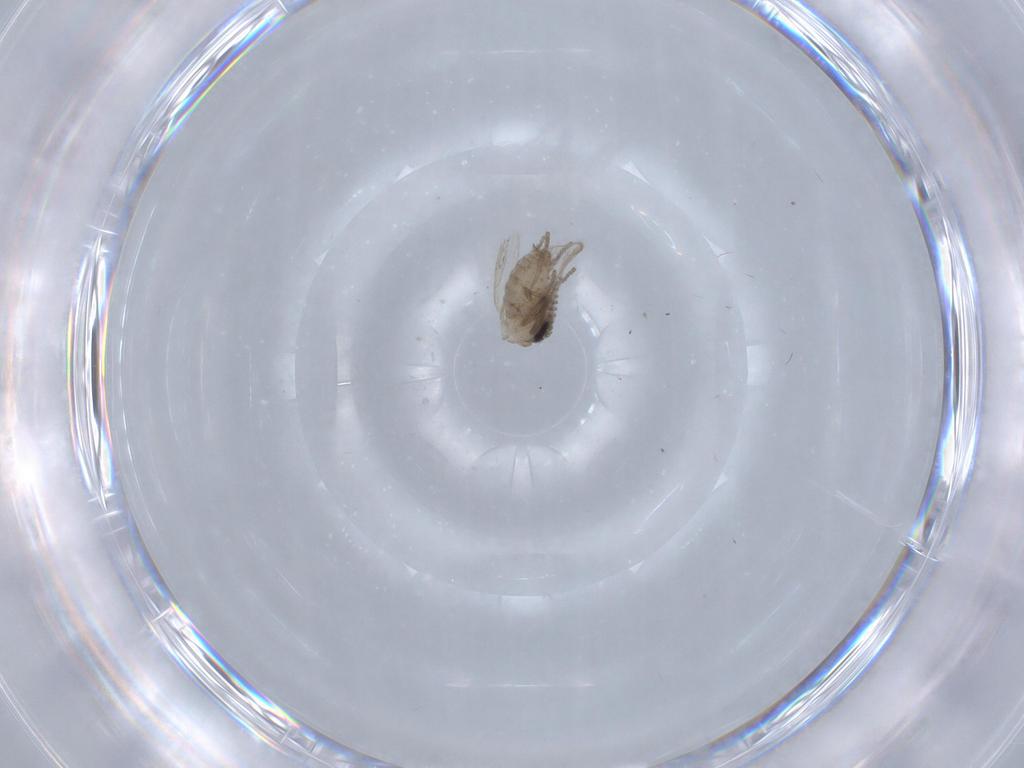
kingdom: Animalia
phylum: Arthropoda
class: Insecta
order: Diptera
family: Psychodidae
